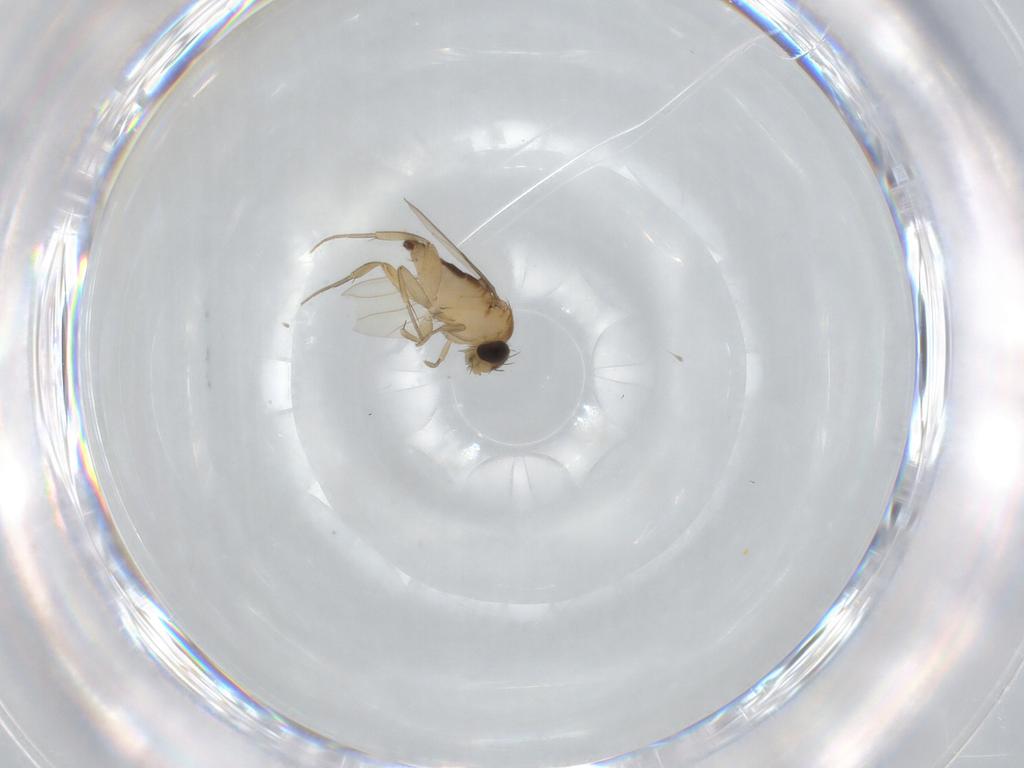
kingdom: Animalia
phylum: Arthropoda
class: Insecta
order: Diptera
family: Phoridae
